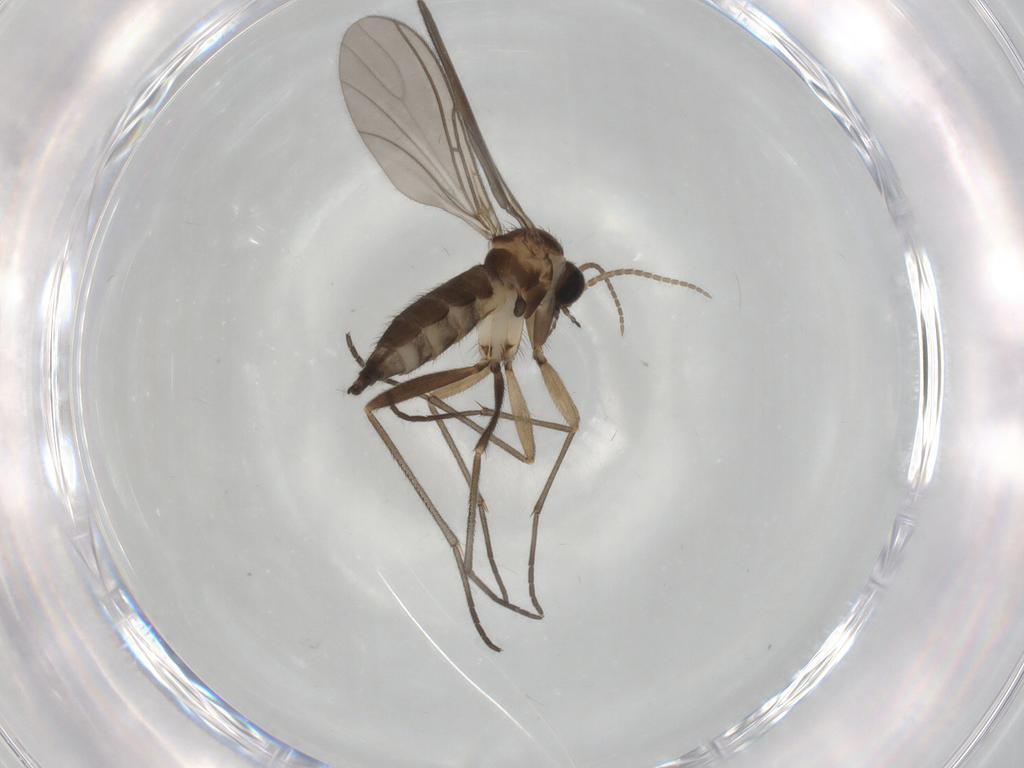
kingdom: Animalia
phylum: Arthropoda
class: Insecta
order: Diptera
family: Sciaridae
